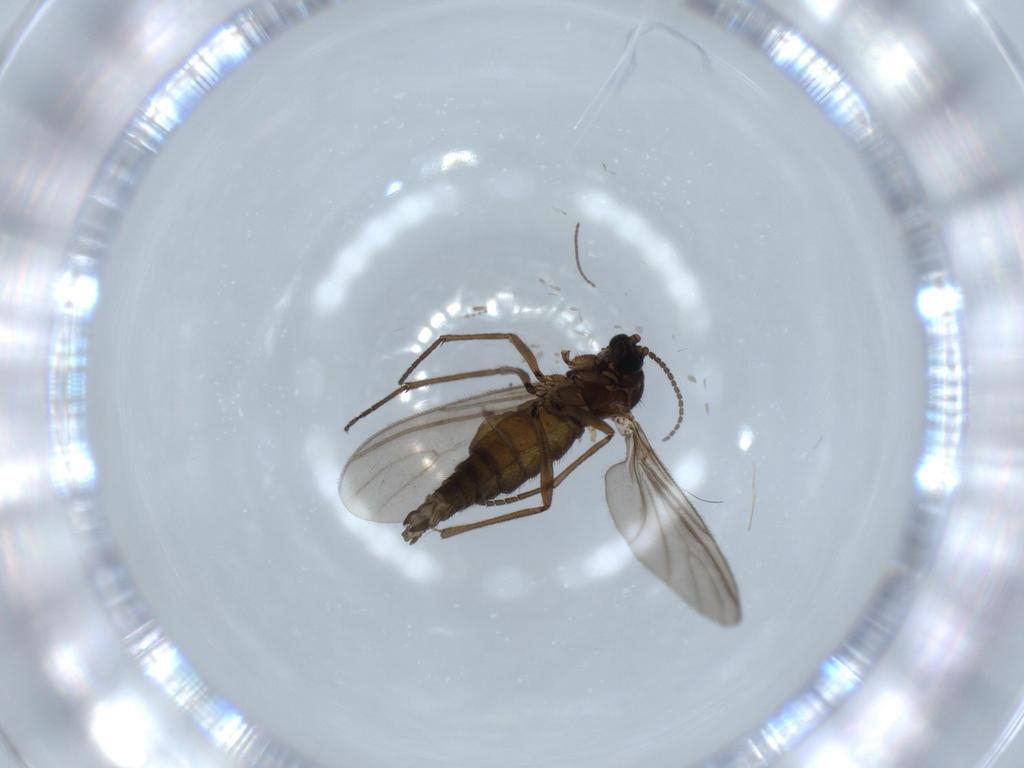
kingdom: Animalia
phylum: Arthropoda
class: Insecta
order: Diptera
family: Sciaridae
